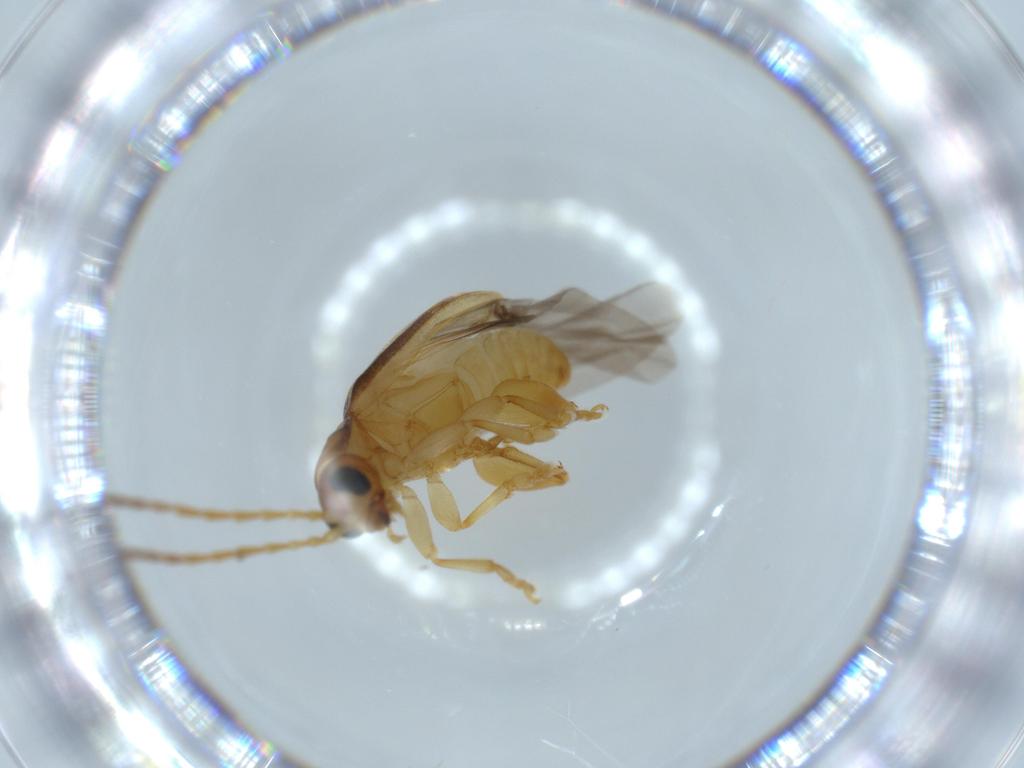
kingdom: Animalia
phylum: Arthropoda
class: Insecta
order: Coleoptera
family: Chrysomelidae
